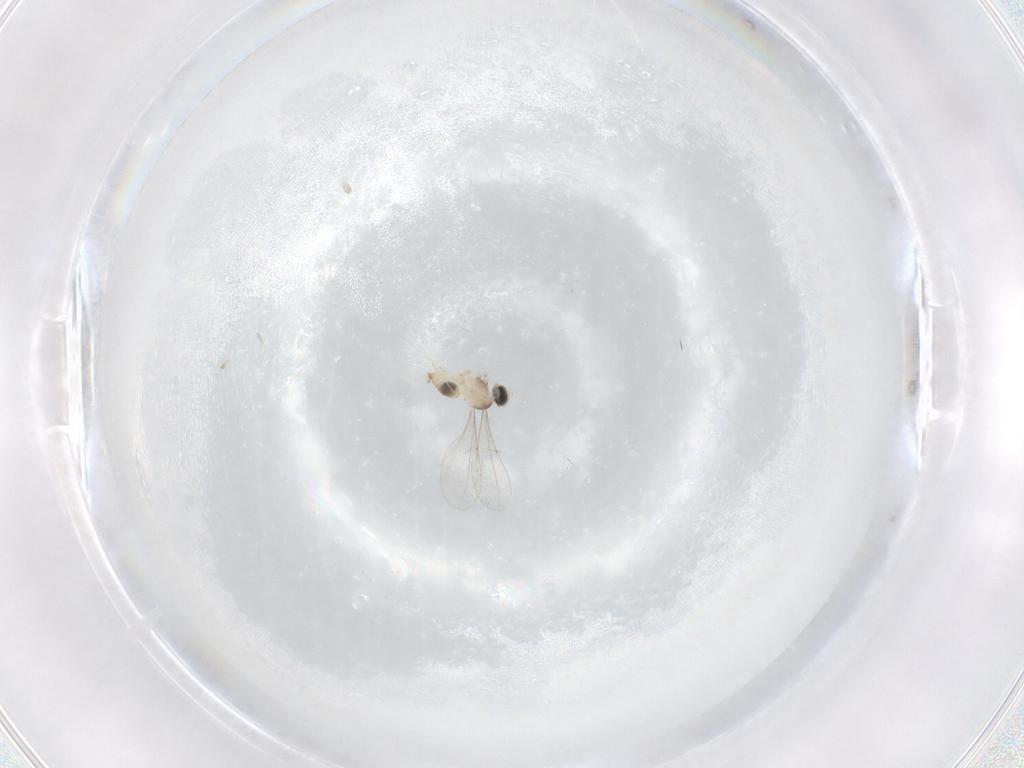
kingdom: Animalia
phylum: Arthropoda
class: Insecta
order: Diptera
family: Cecidomyiidae
